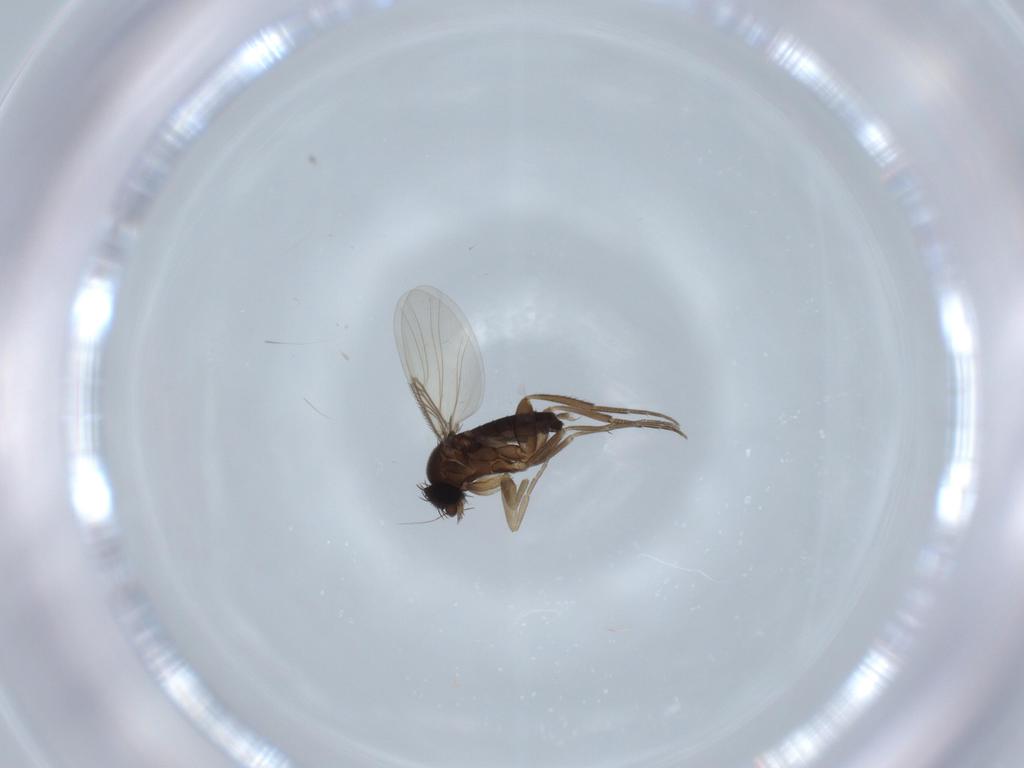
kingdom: Animalia
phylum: Arthropoda
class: Insecta
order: Diptera
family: Phoridae
